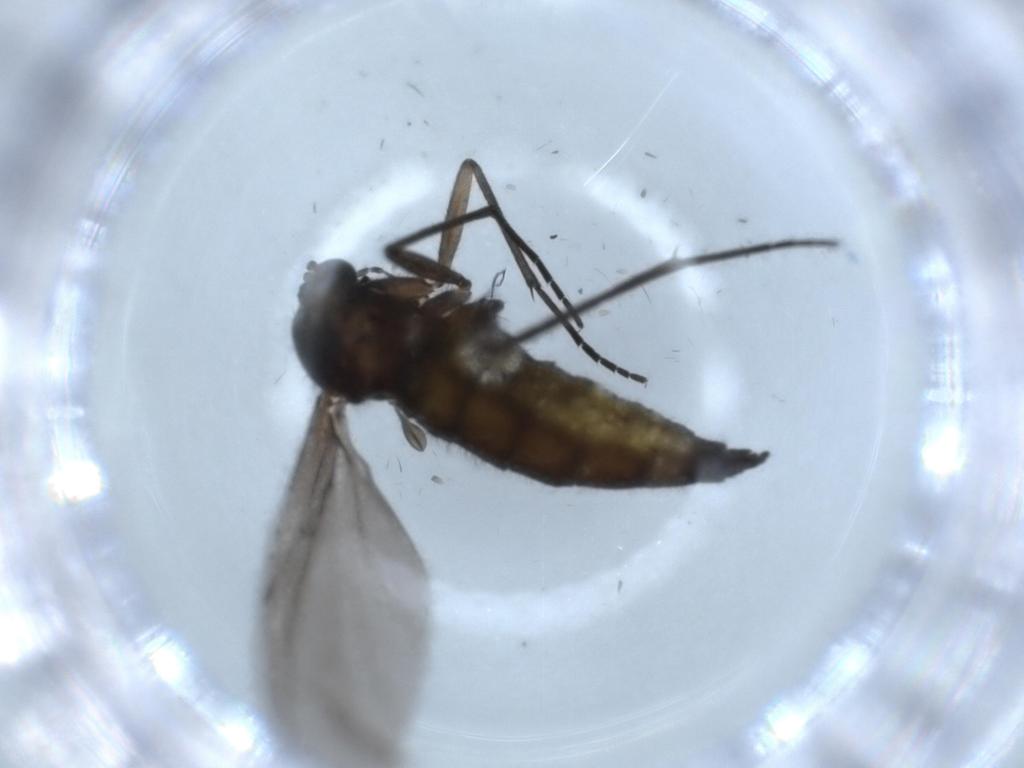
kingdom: Animalia
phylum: Arthropoda
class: Insecta
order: Diptera
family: Sciaridae
